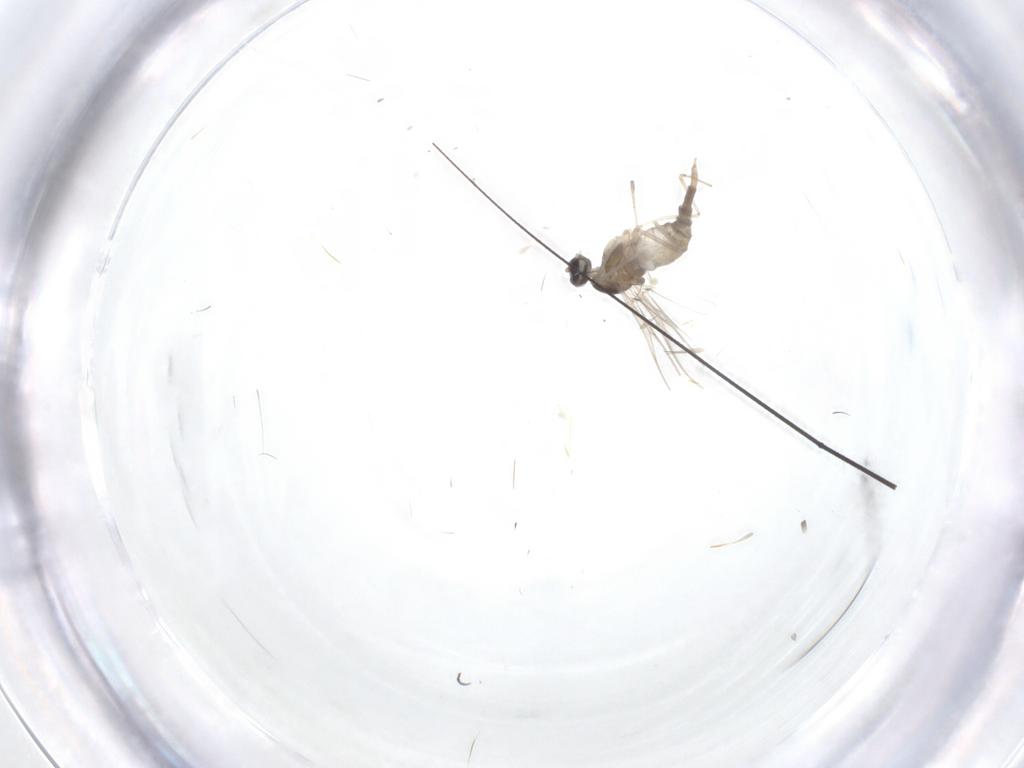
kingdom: Animalia
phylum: Arthropoda
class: Insecta
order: Diptera
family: Cecidomyiidae
